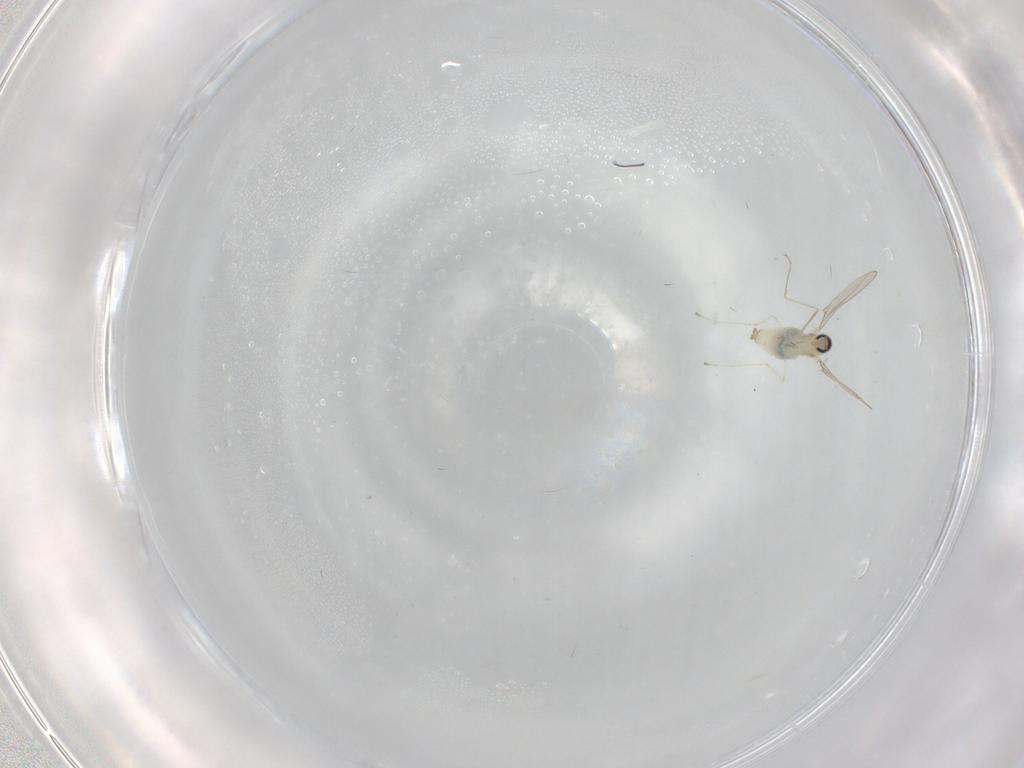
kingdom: Animalia
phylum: Arthropoda
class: Insecta
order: Diptera
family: Cecidomyiidae
